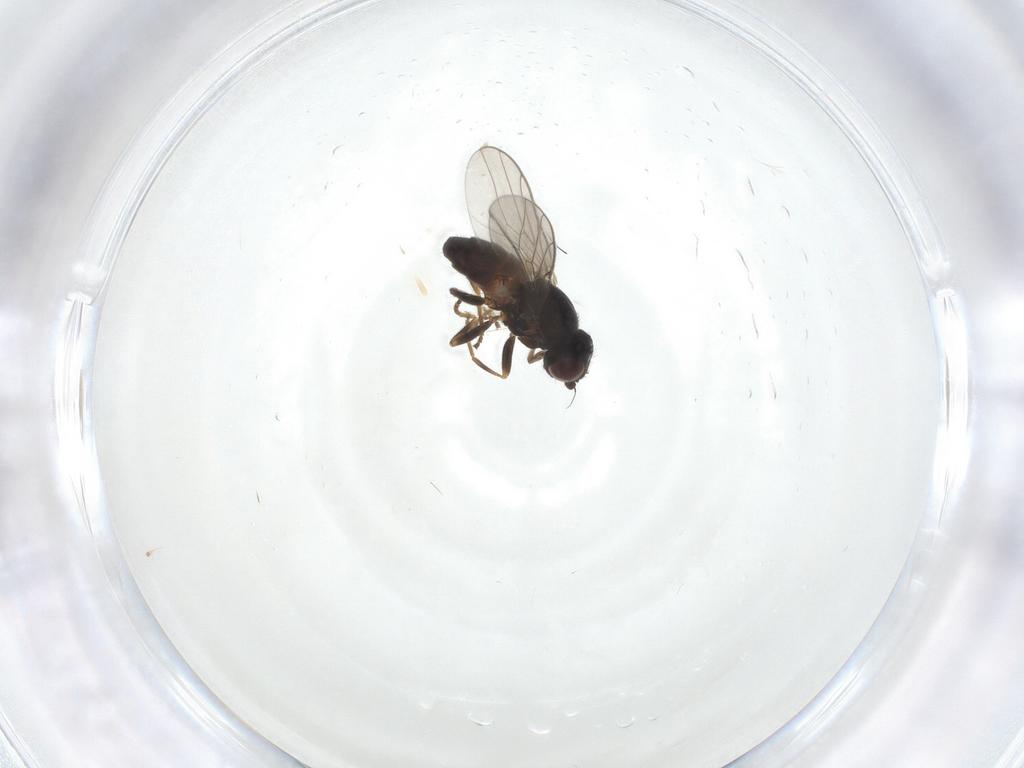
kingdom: Animalia
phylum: Arthropoda
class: Insecta
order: Diptera
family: Chloropidae
